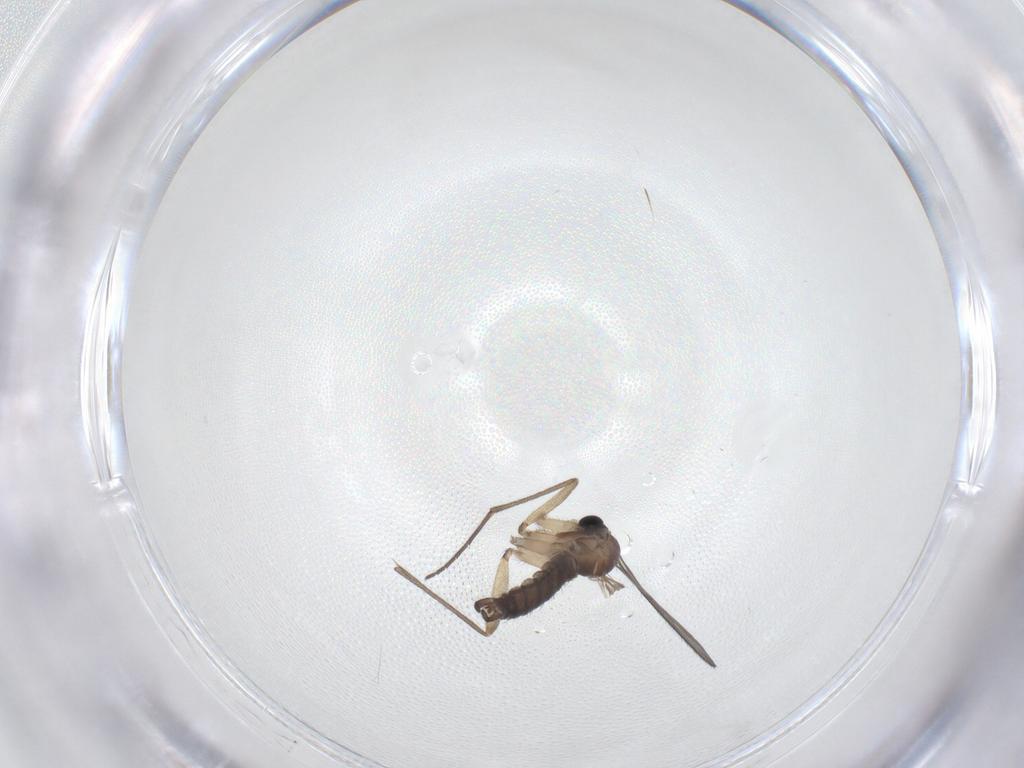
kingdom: Animalia
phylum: Arthropoda
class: Insecta
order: Diptera
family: Sciaridae
